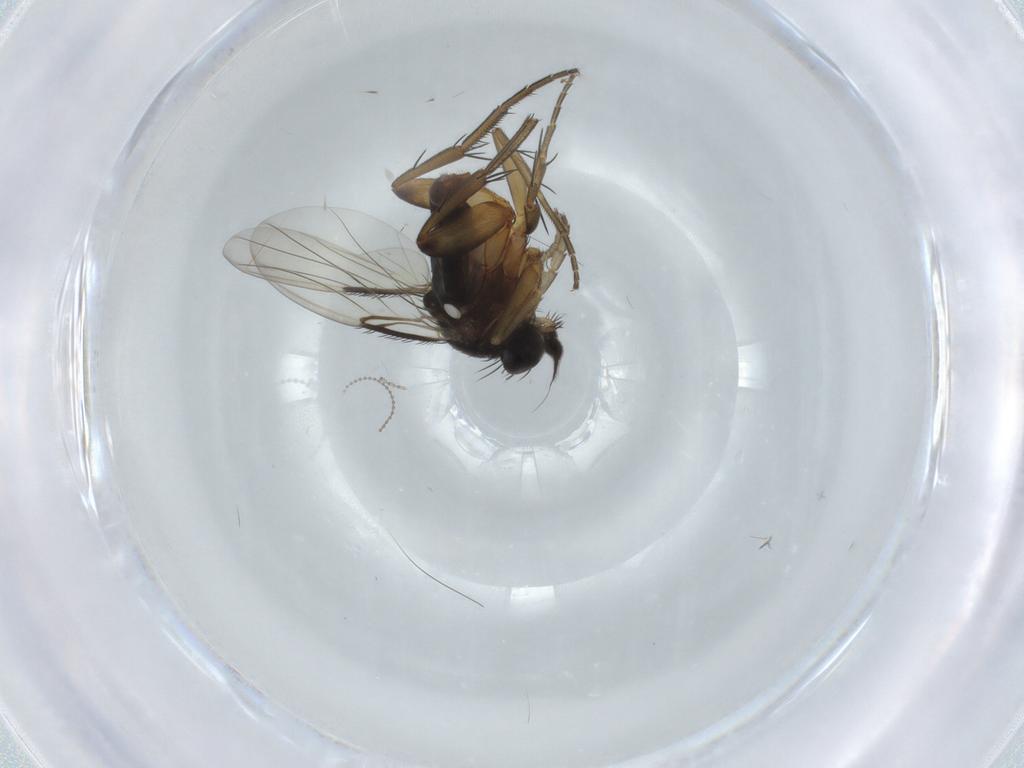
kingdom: Animalia
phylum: Arthropoda
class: Insecta
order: Diptera
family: Phoridae
